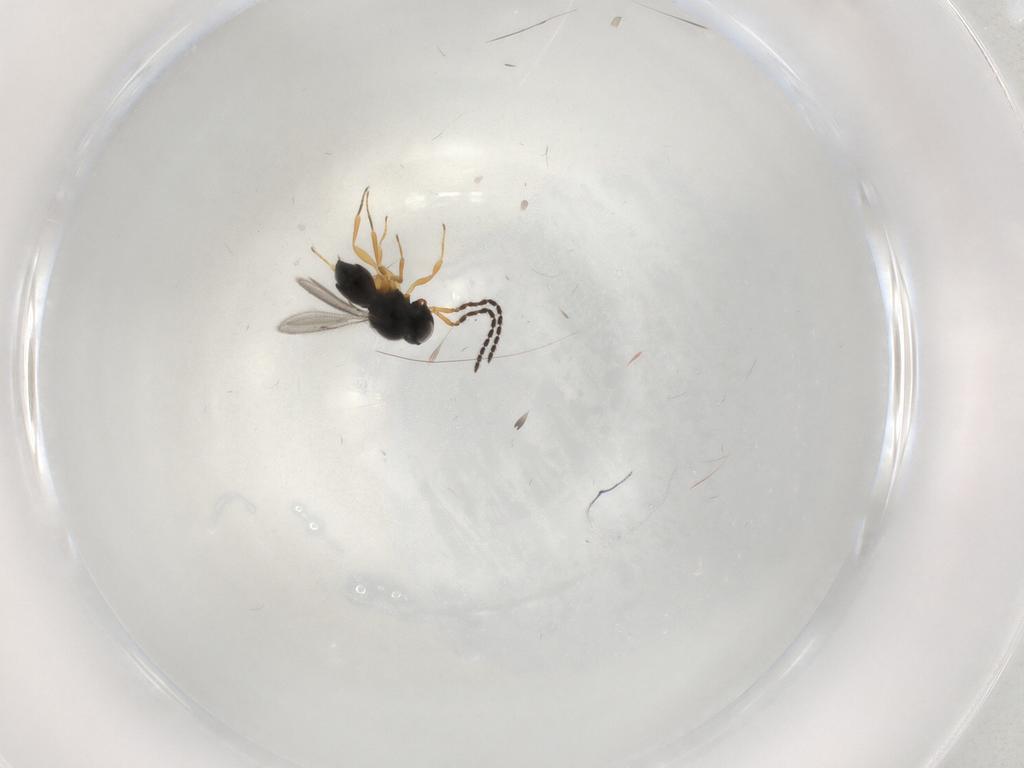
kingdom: Animalia
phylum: Arthropoda
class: Insecta
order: Hymenoptera
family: Scelionidae
